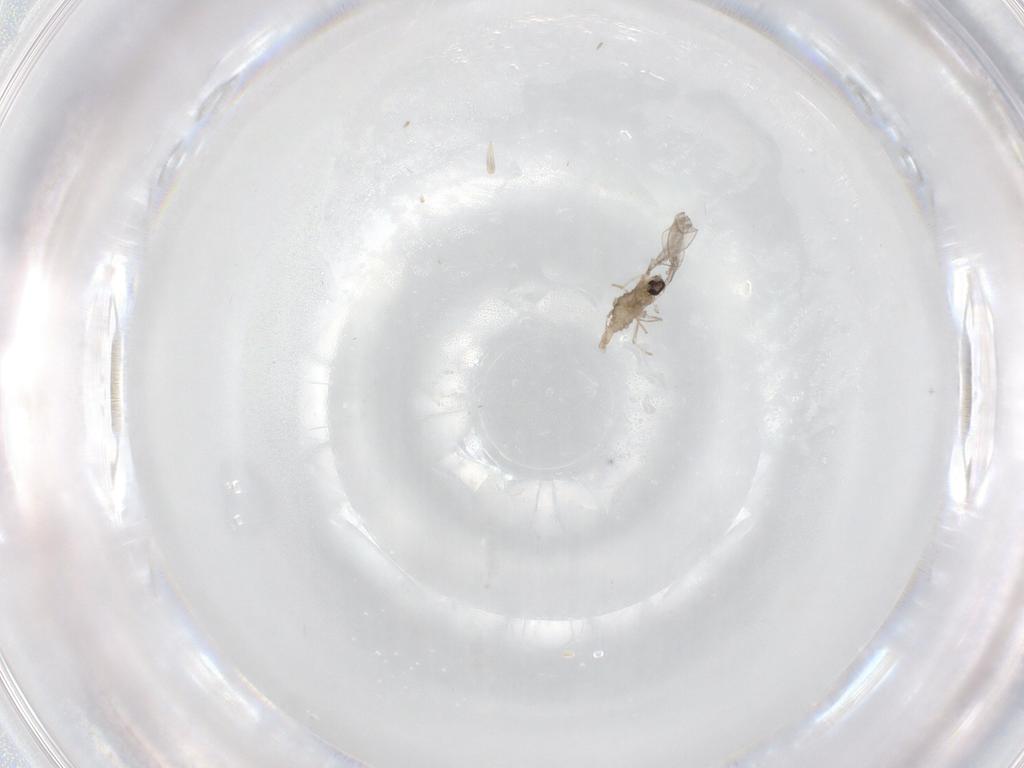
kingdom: Animalia
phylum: Arthropoda
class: Insecta
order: Diptera
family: Cecidomyiidae
